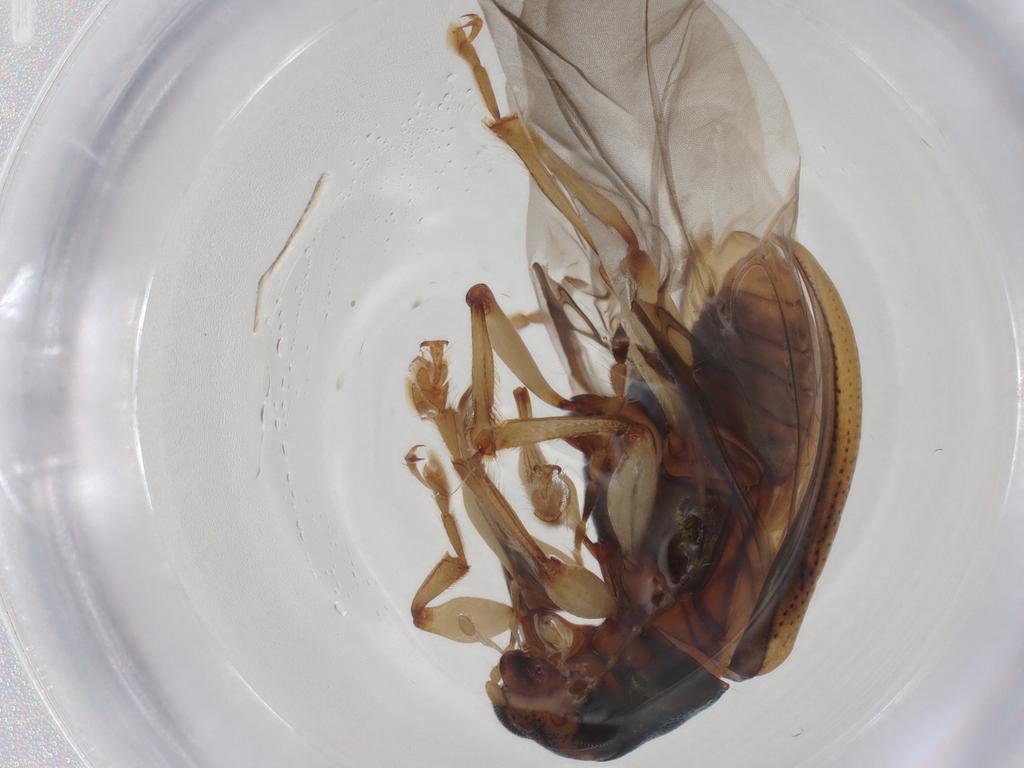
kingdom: Animalia
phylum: Arthropoda
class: Insecta
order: Coleoptera
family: Chrysomelidae
